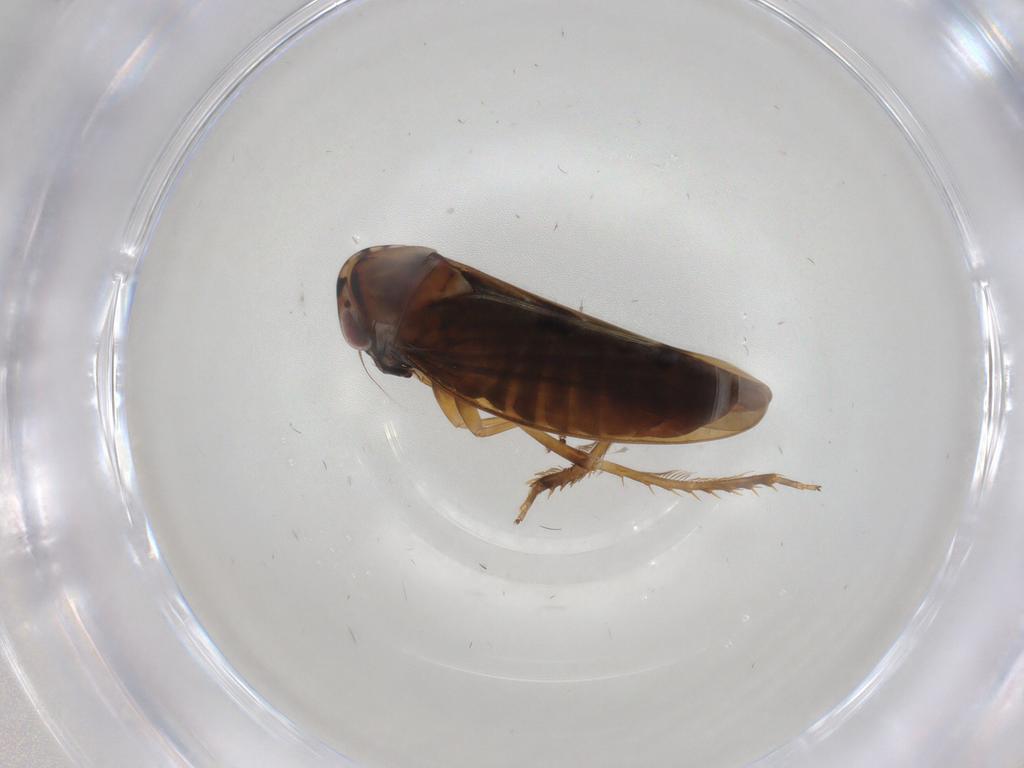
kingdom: Animalia
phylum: Arthropoda
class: Insecta
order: Hemiptera
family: Cicadellidae
